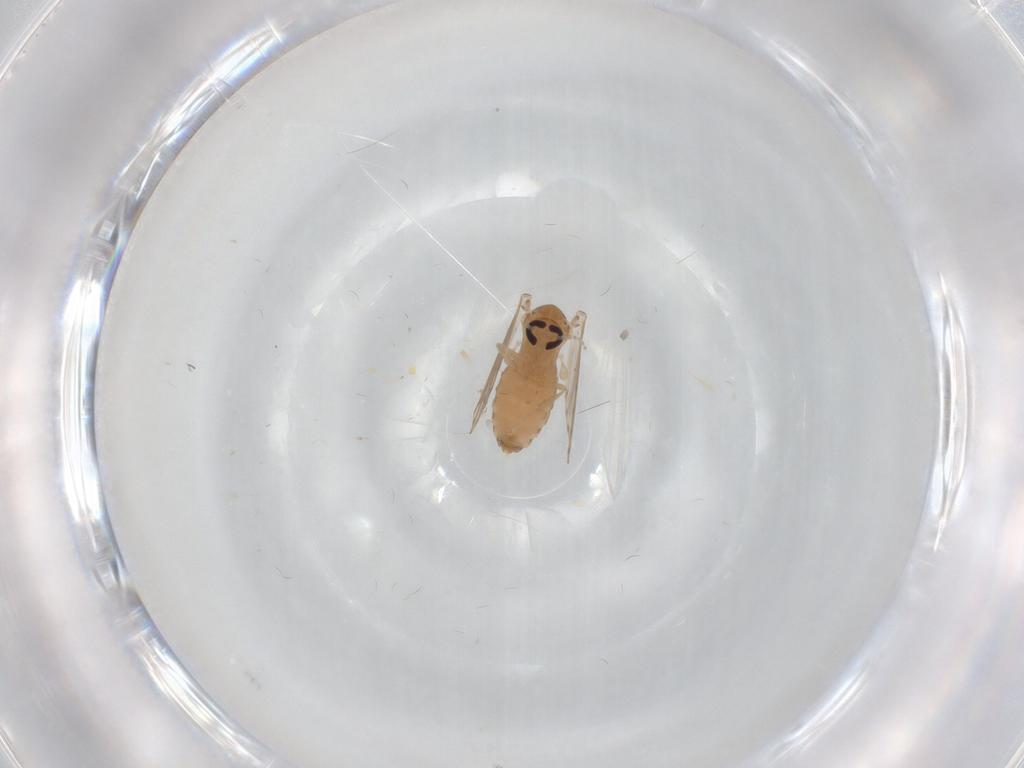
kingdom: Animalia
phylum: Arthropoda
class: Insecta
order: Diptera
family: Psychodidae
